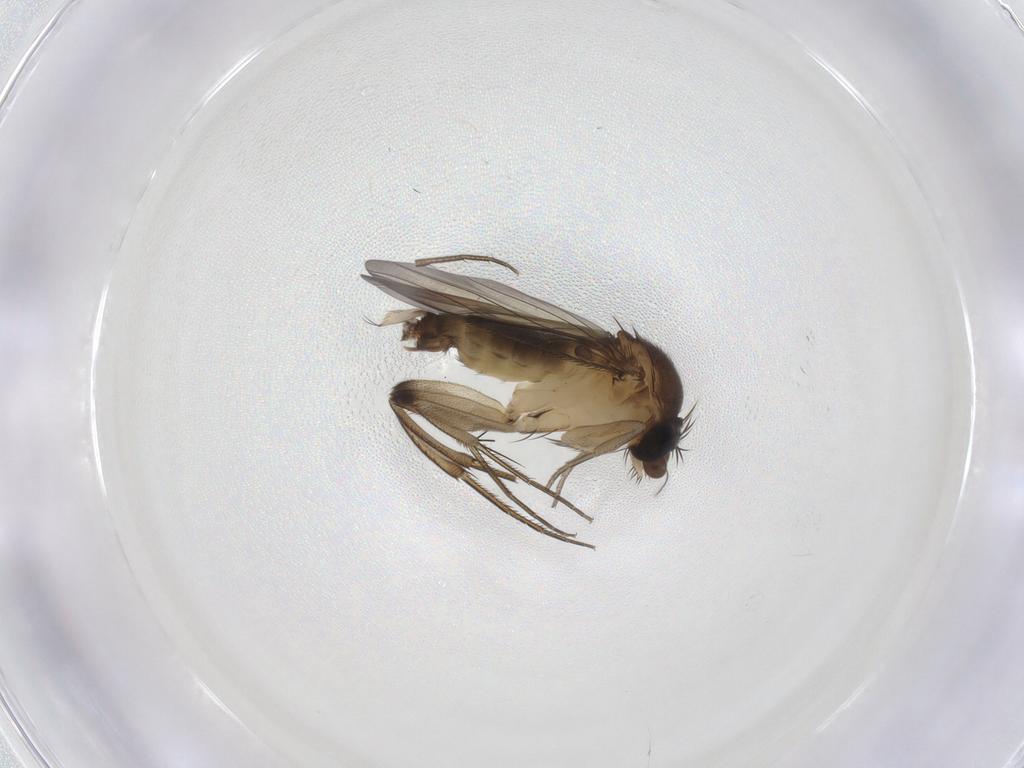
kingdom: Animalia
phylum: Arthropoda
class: Insecta
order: Diptera
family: Phoridae
